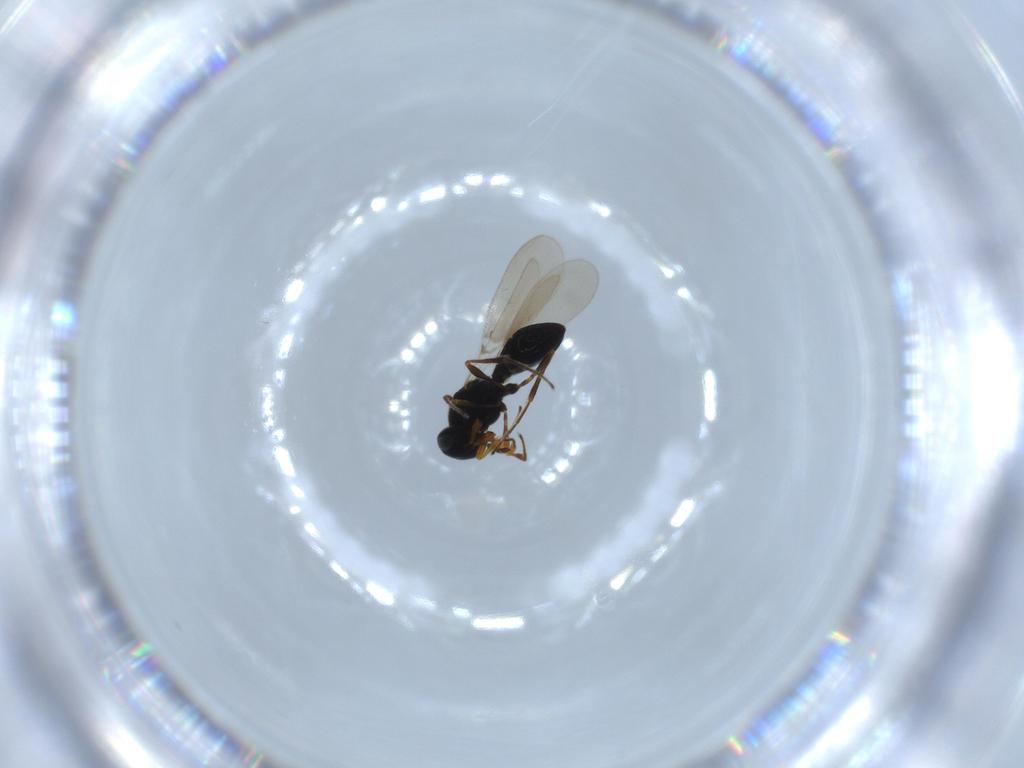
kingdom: Animalia
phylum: Arthropoda
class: Insecta
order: Hymenoptera
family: Platygastridae
